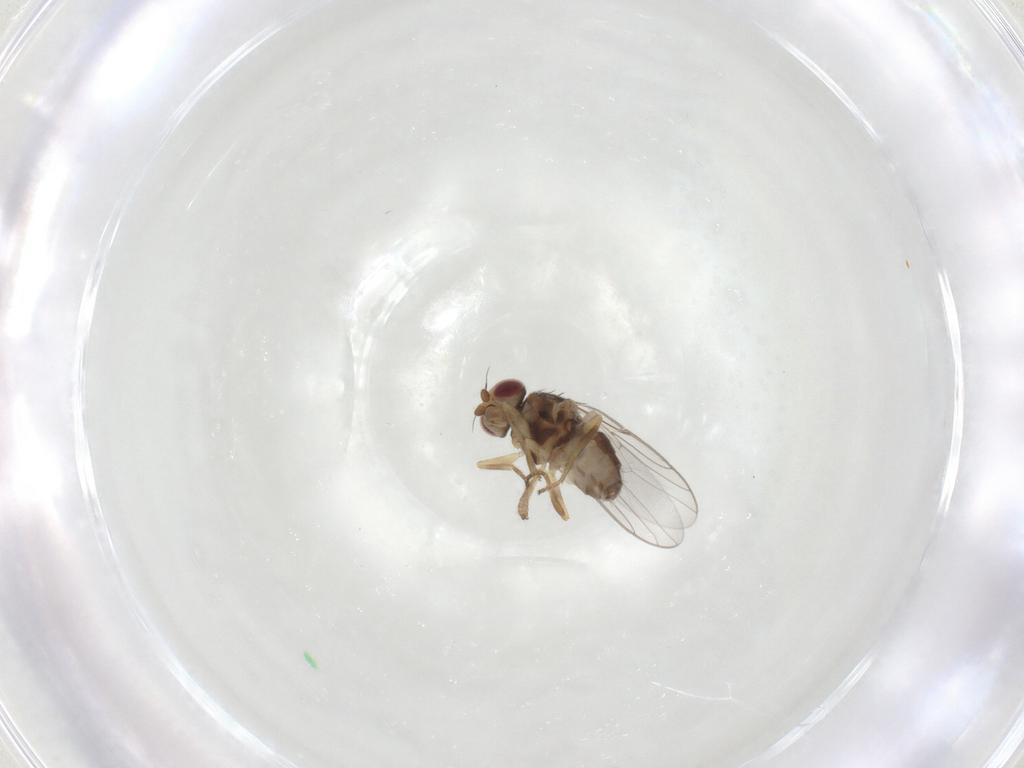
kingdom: Animalia
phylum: Arthropoda
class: Insecta
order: Diptera
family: Chloropidae
